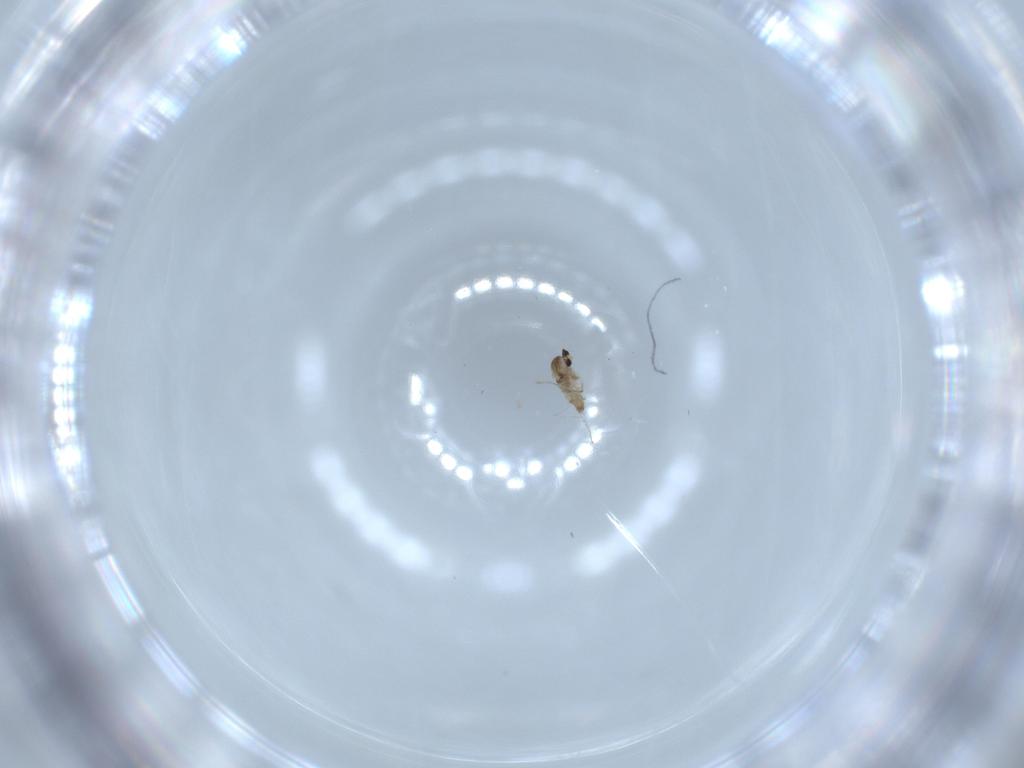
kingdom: Animalia
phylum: Arthropoda
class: Insecta
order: Diptera
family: Cecidomyiidae
